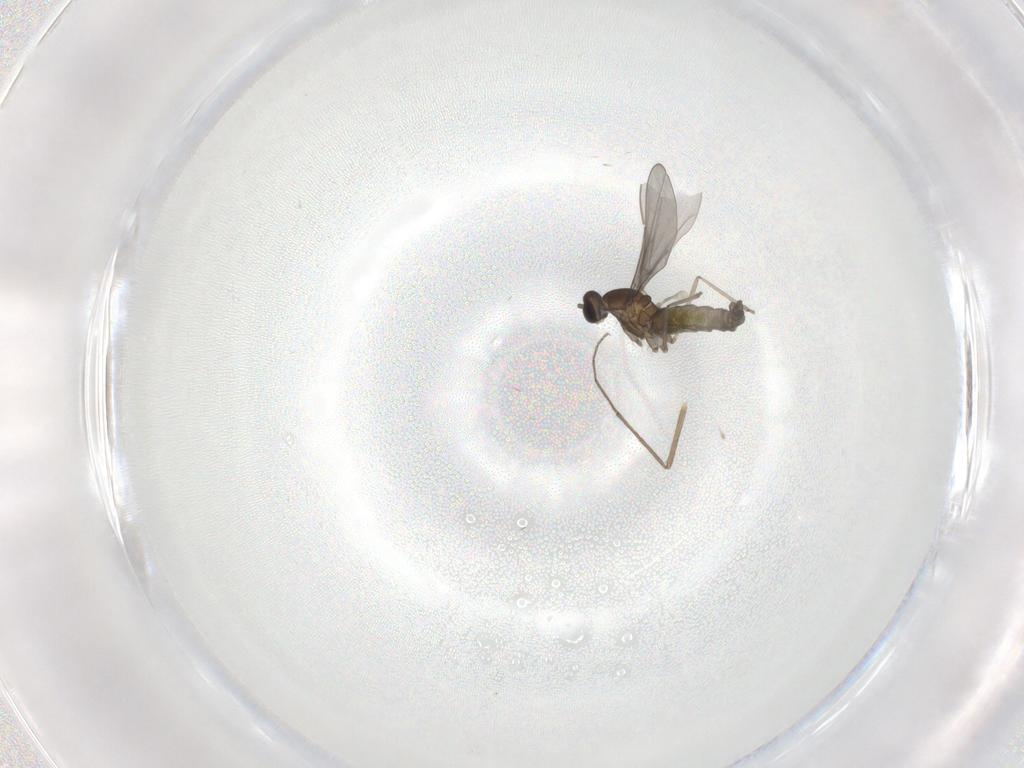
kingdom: Animalia
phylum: Arthropoda
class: Insecta
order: Diptera
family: Chironomidae
